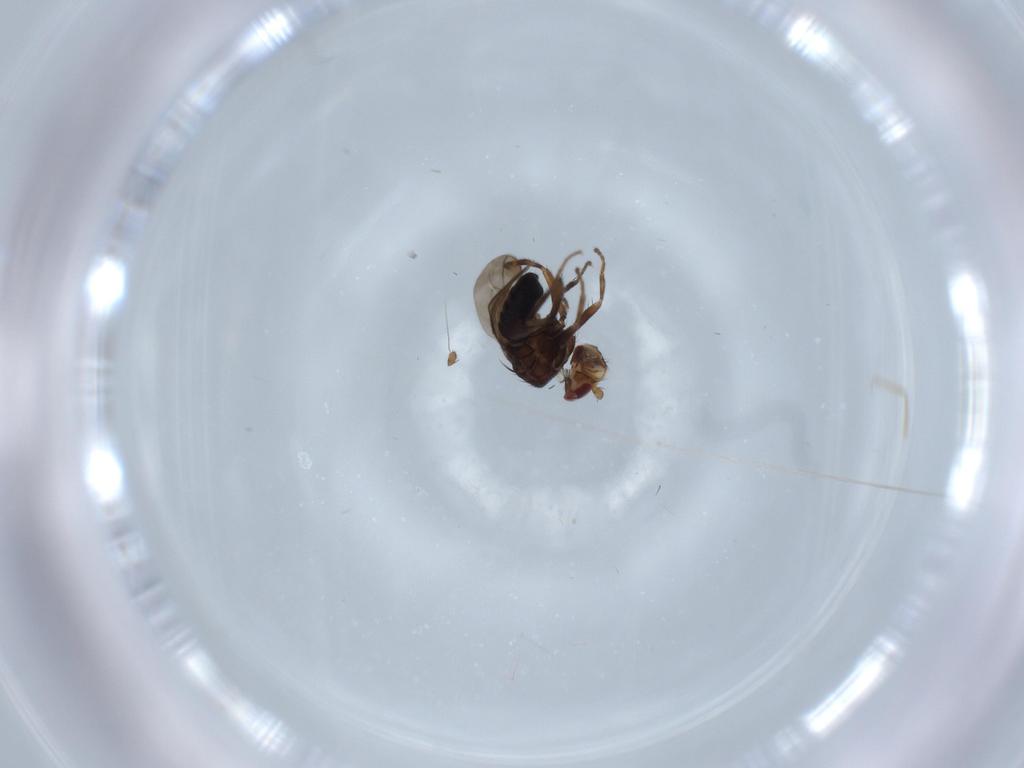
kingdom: Animalia
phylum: Arthropoda
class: Insecta
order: Diptera
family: Sphaeroceridae
